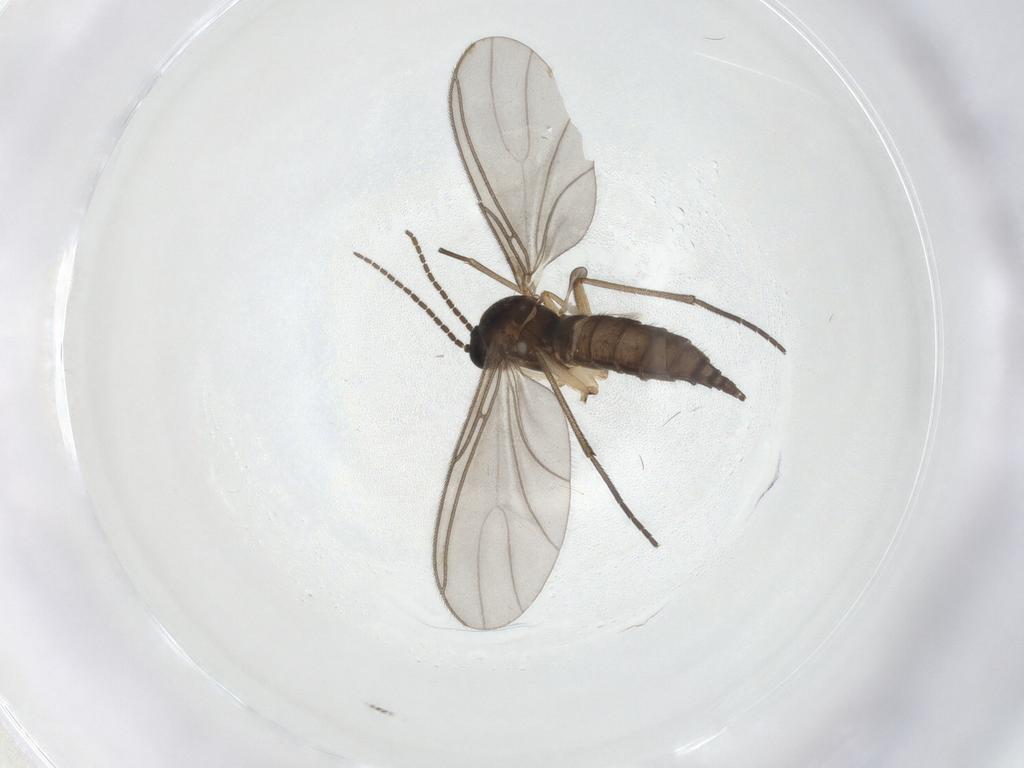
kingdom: Animalia
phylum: Arthropoda
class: Insecta
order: Diptera
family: Sciaridae
